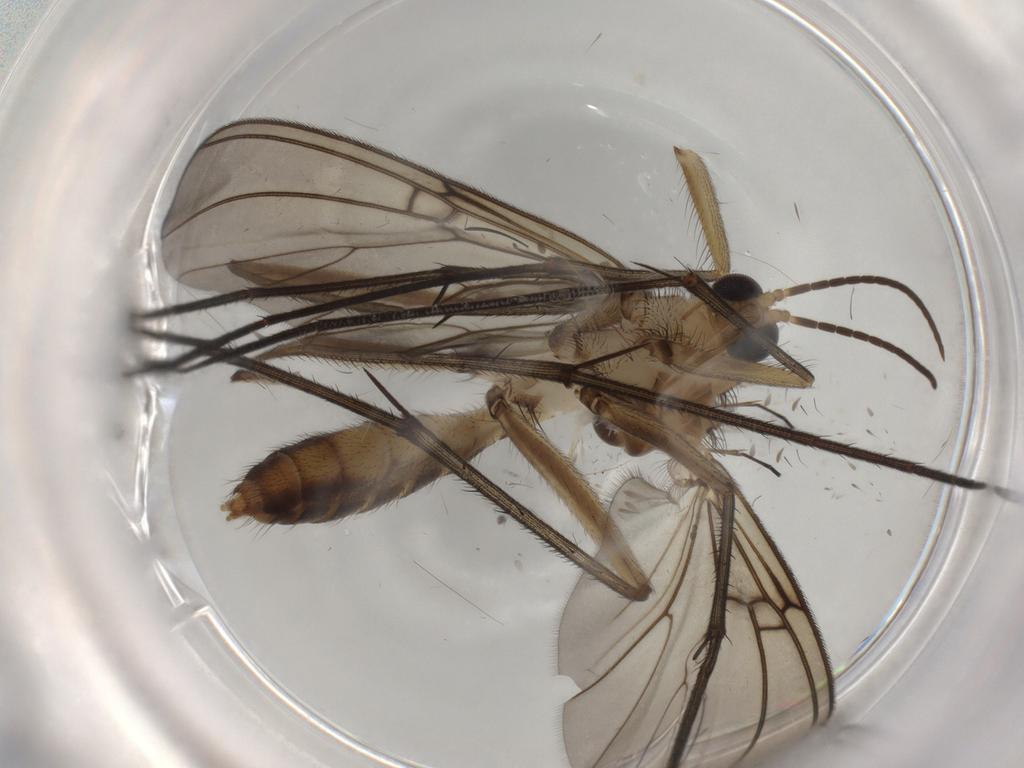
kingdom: Animalia
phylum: Arthropoda
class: Insecta
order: Diptera
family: Mycetophilidae
